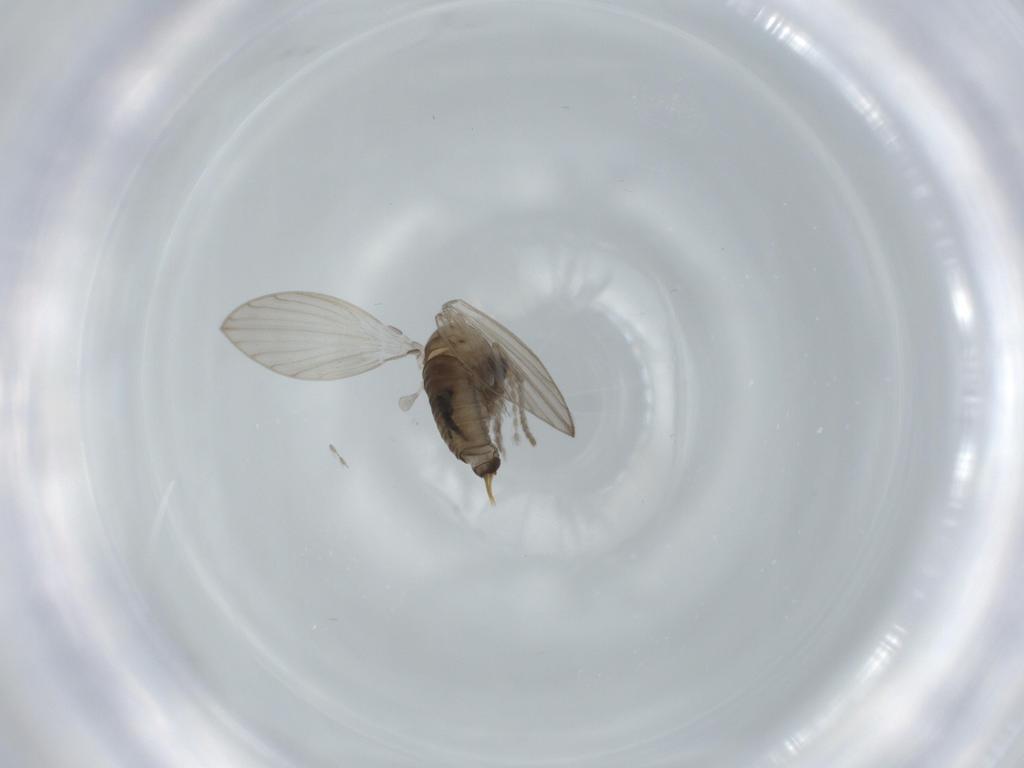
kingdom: Animalia
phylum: Arthropoda
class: Insecta
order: Diptera
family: Psychodidae
